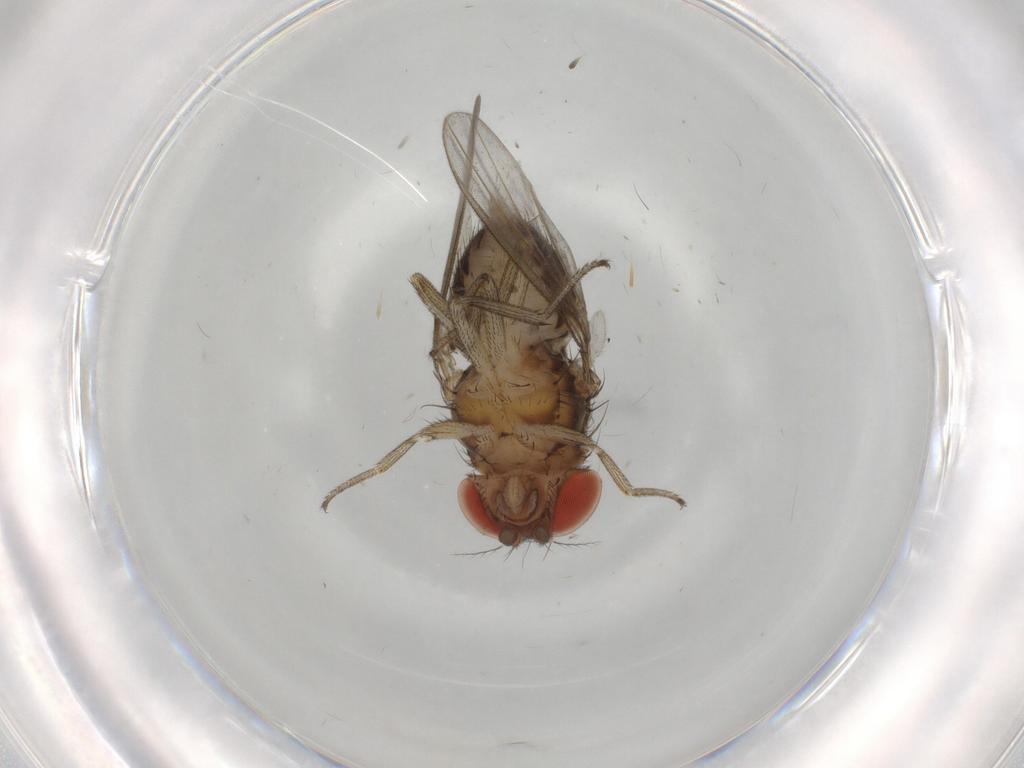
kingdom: Animalia
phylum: Arthropoda
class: Insecta
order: Diptera
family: Drosophilidae
